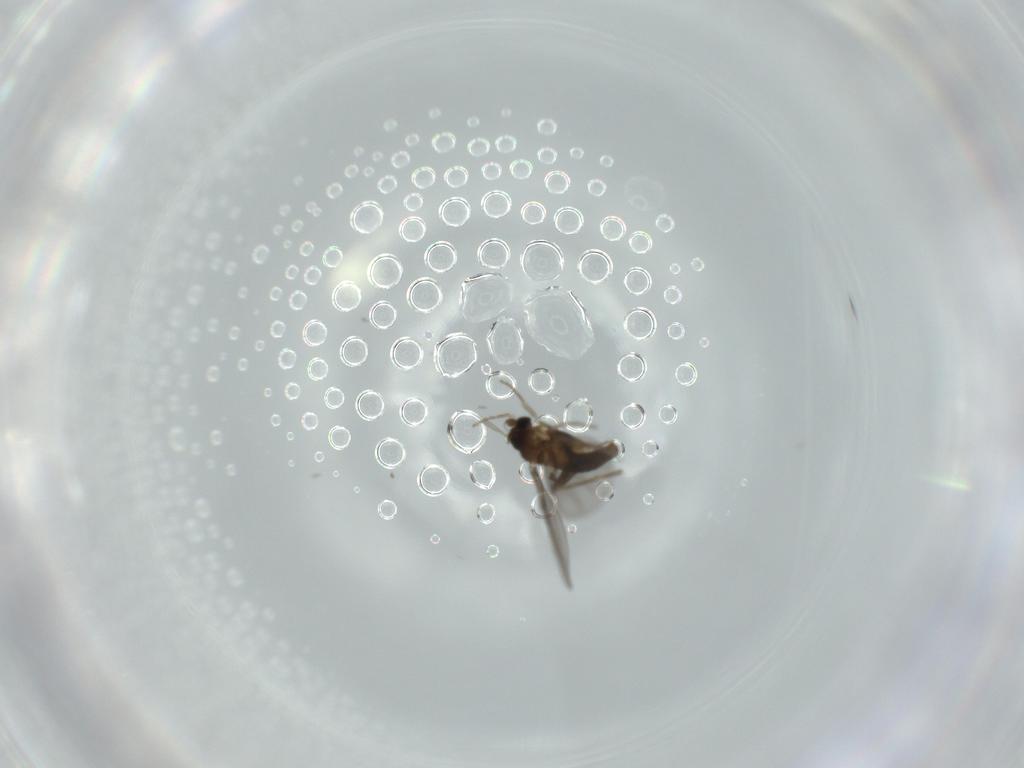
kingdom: Animalia
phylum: Arthropoda
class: Insecta
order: Diptera
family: Phoridae
